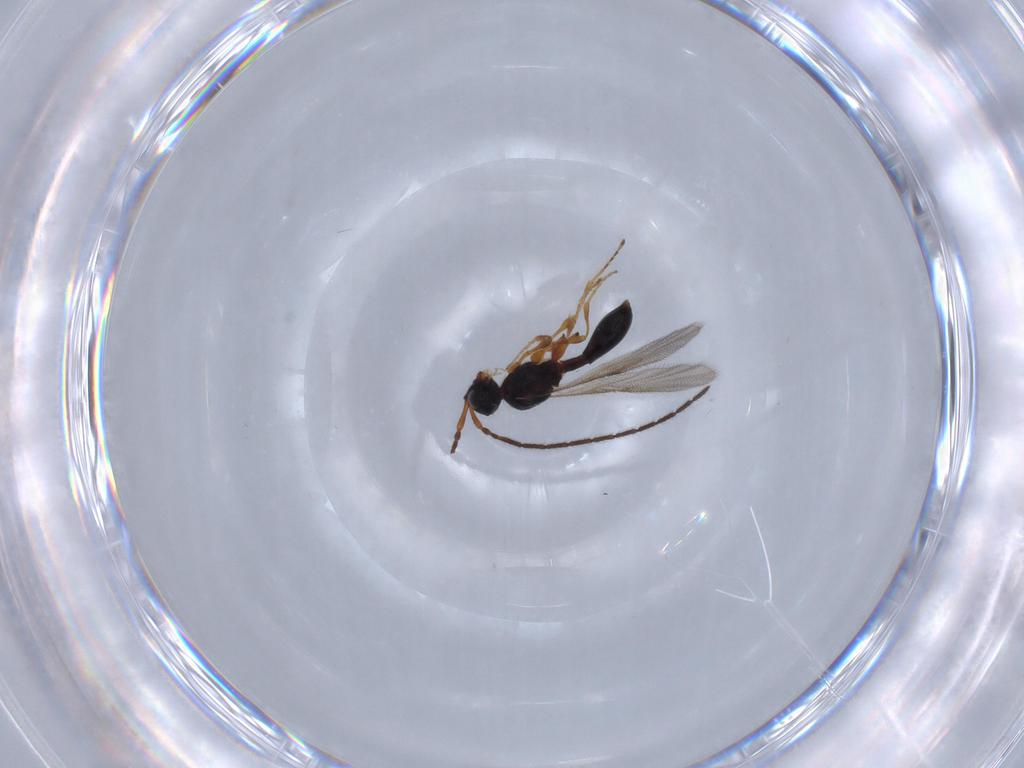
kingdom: Animalia
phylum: Arthropoda
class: Insecta
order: Hymenoptera
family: Diapriidae
